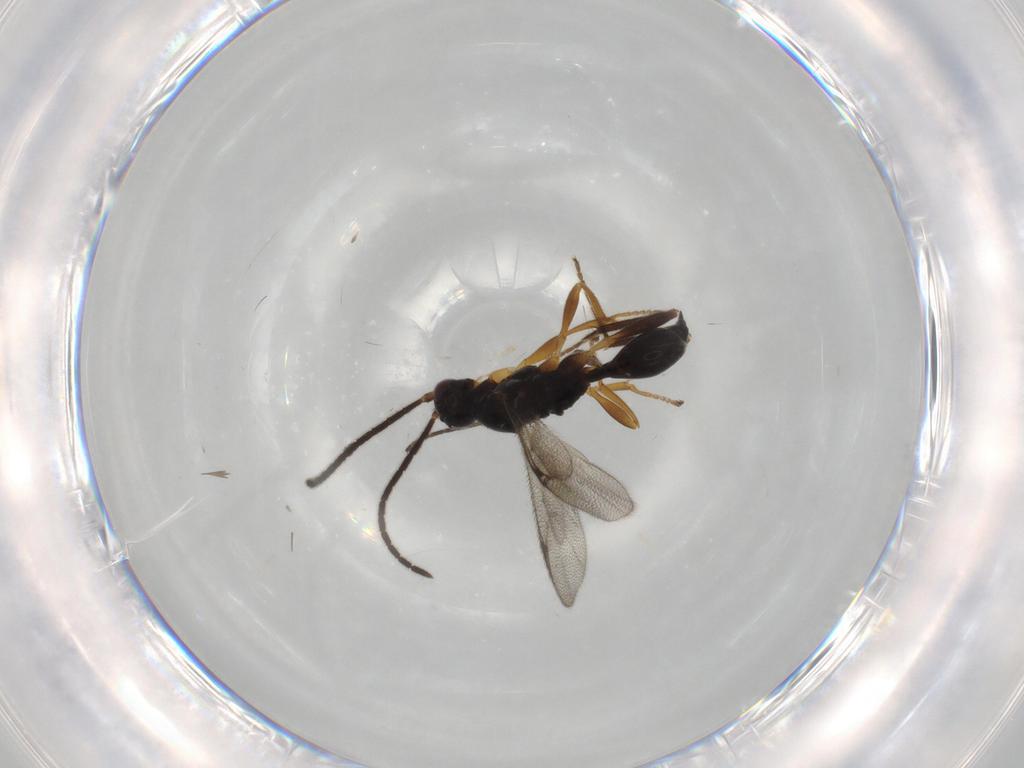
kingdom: Animalia
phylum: Arthropoda
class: Insecta
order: Hymenoptera
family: Proctotrupidae
